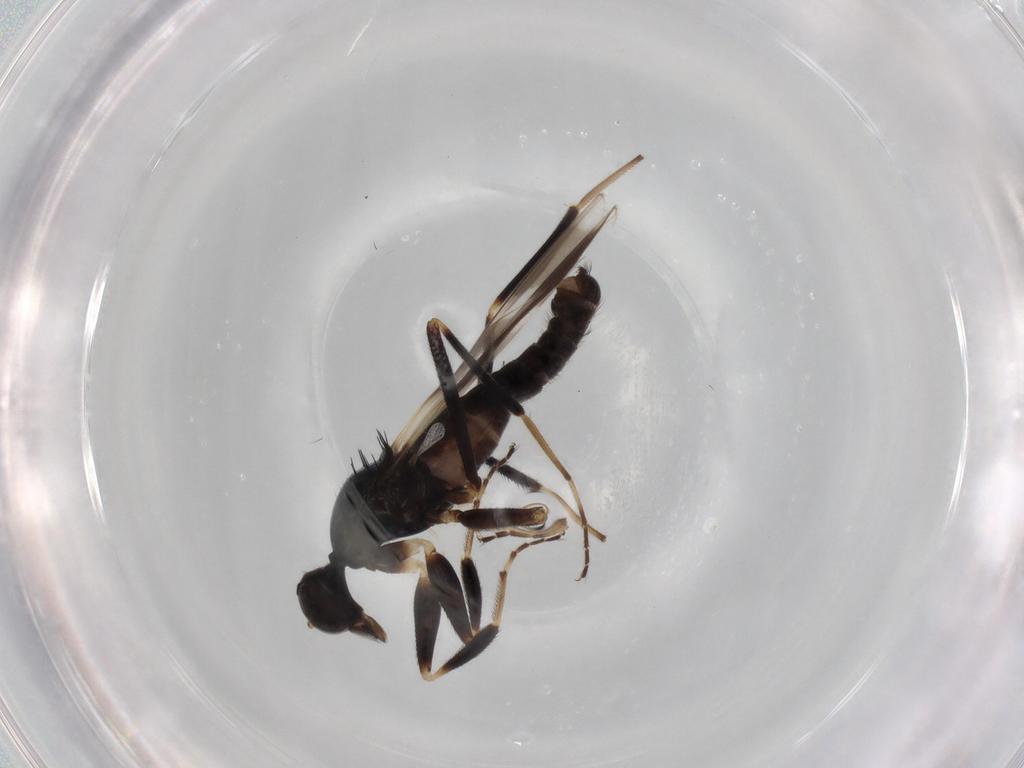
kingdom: Animalia
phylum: Arthropoda
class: Insecta
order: Diptera
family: Hybotidae
